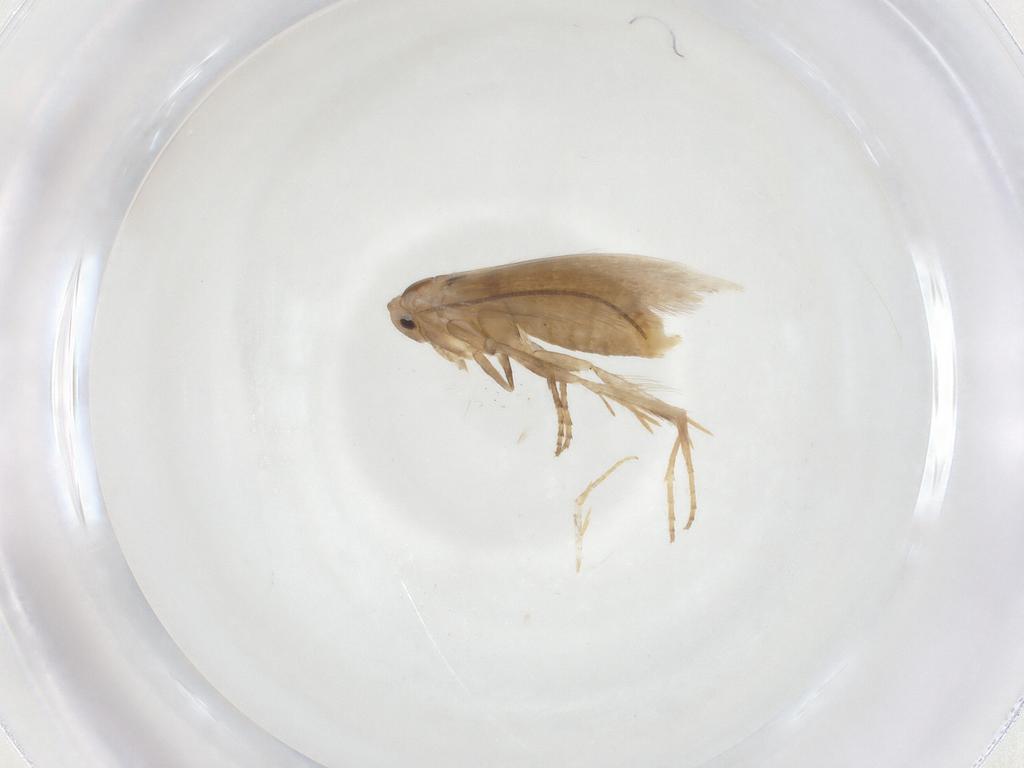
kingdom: Animalia
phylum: Arthropoda
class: Insecta
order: Lepidoptera
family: Bucculatricidae
